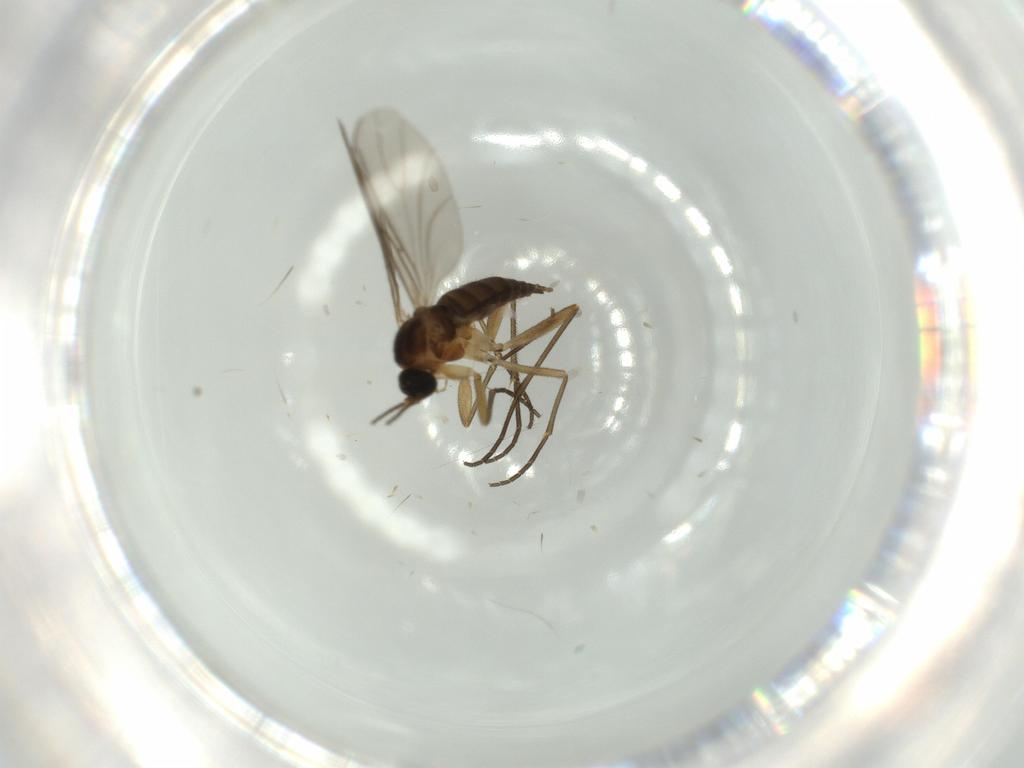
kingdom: Animalia
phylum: Arthropoda
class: Insecta
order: Diptera
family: Sciaridae
